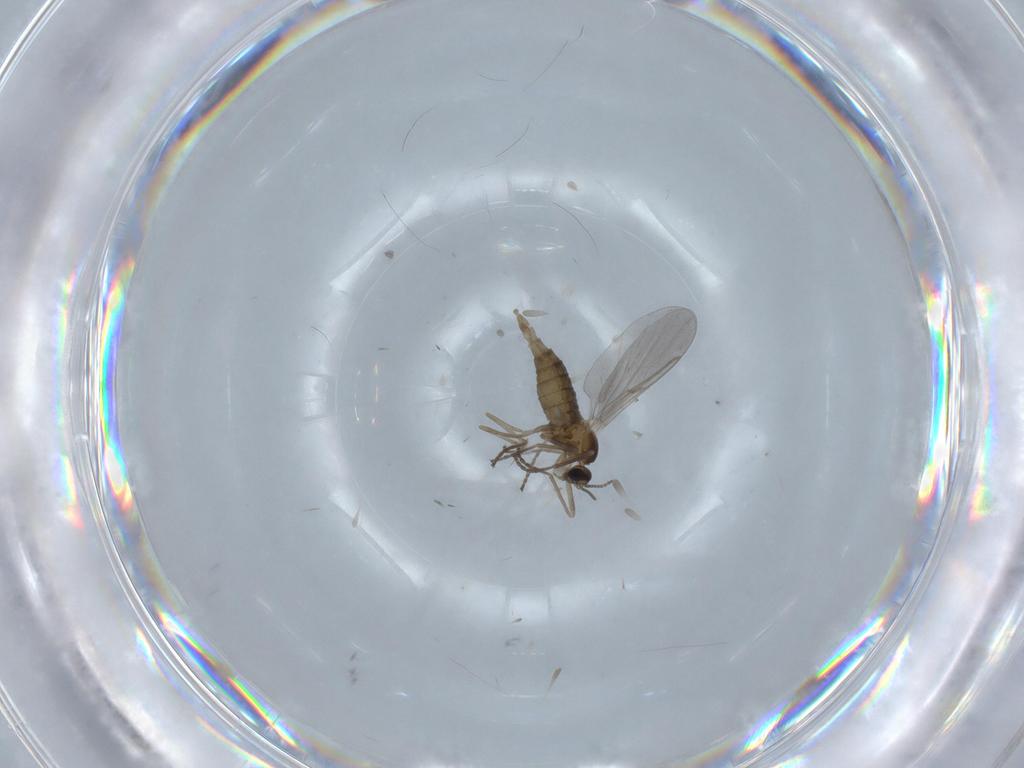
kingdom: Animalia
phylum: Arthropoda
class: Insecta
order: Diptera
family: Cecidomyiidae
